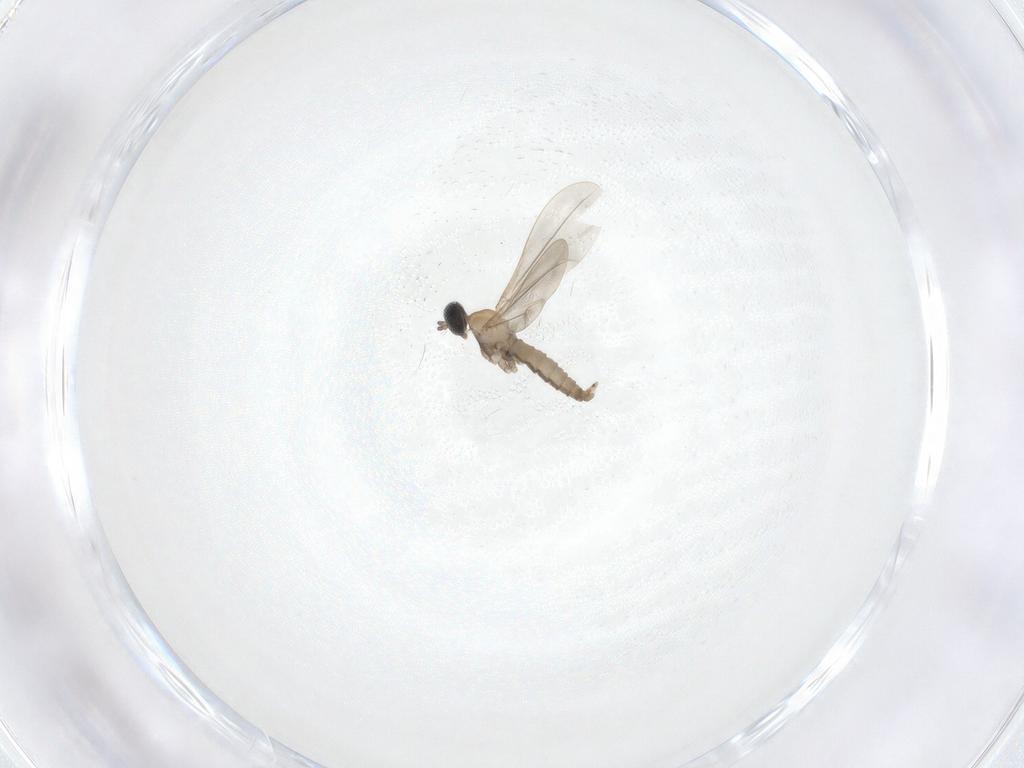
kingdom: Animalia
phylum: Arthropoda
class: Insecta
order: Diptera
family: Cecidomyiidae
